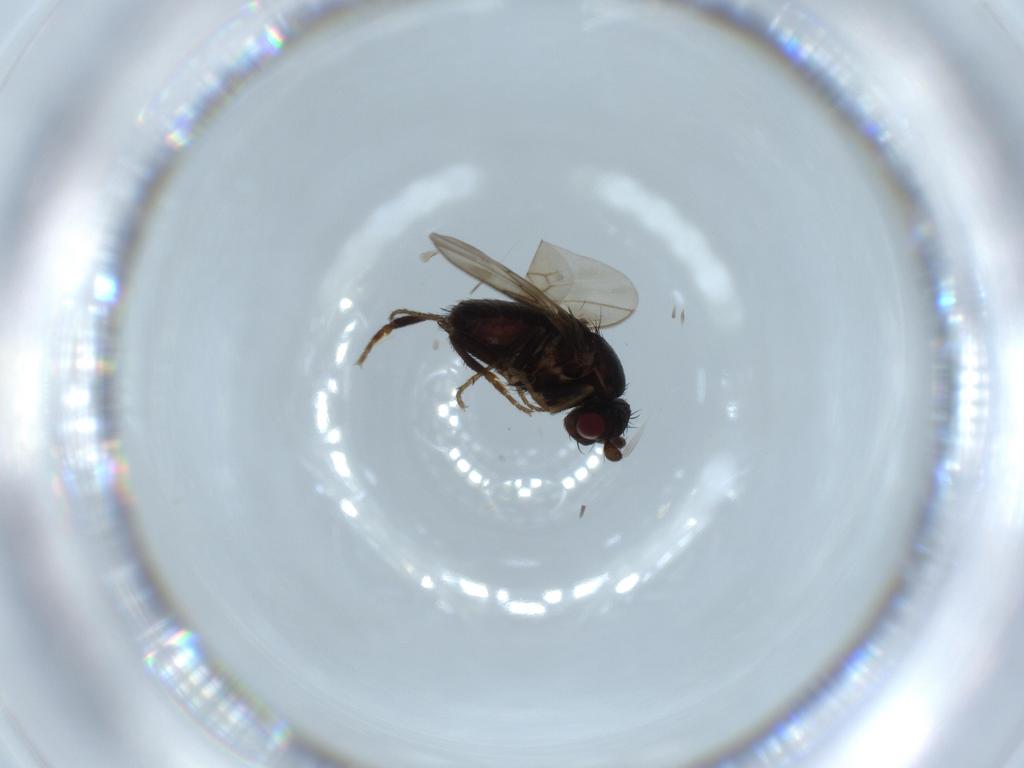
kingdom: Animalia
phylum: Arthropoda
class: Insecta
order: Diptera
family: Sphaeroceridae
